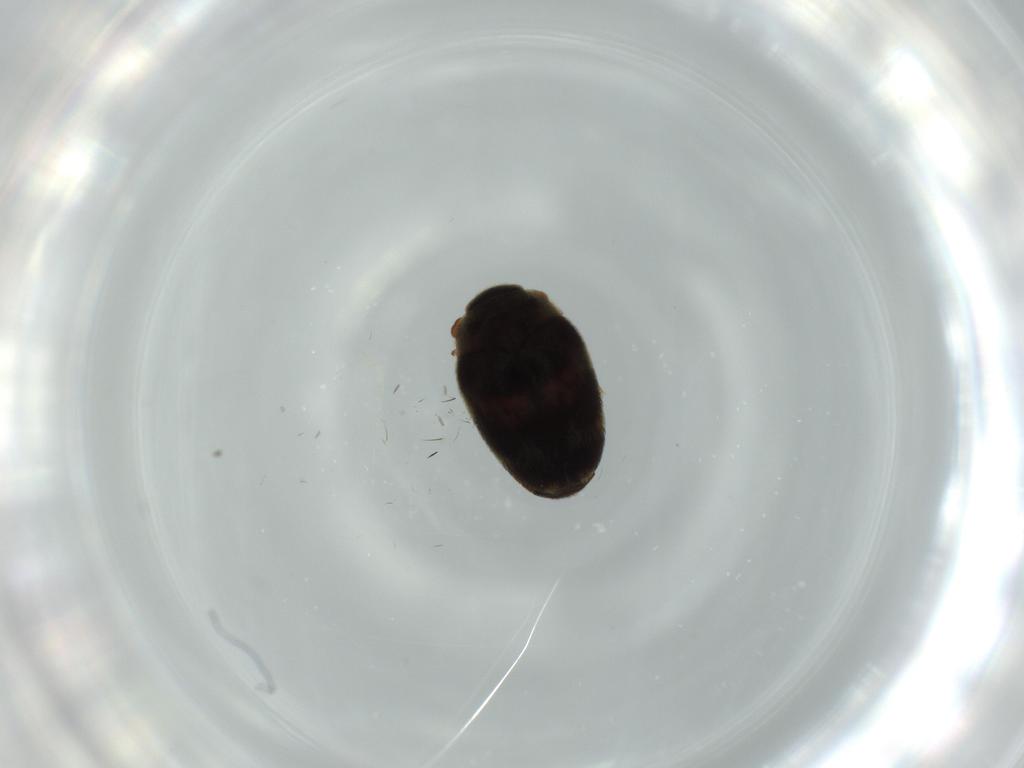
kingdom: Animalia
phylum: Arthropoda
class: Insecta
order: Coleoptera
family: Dermestidae
